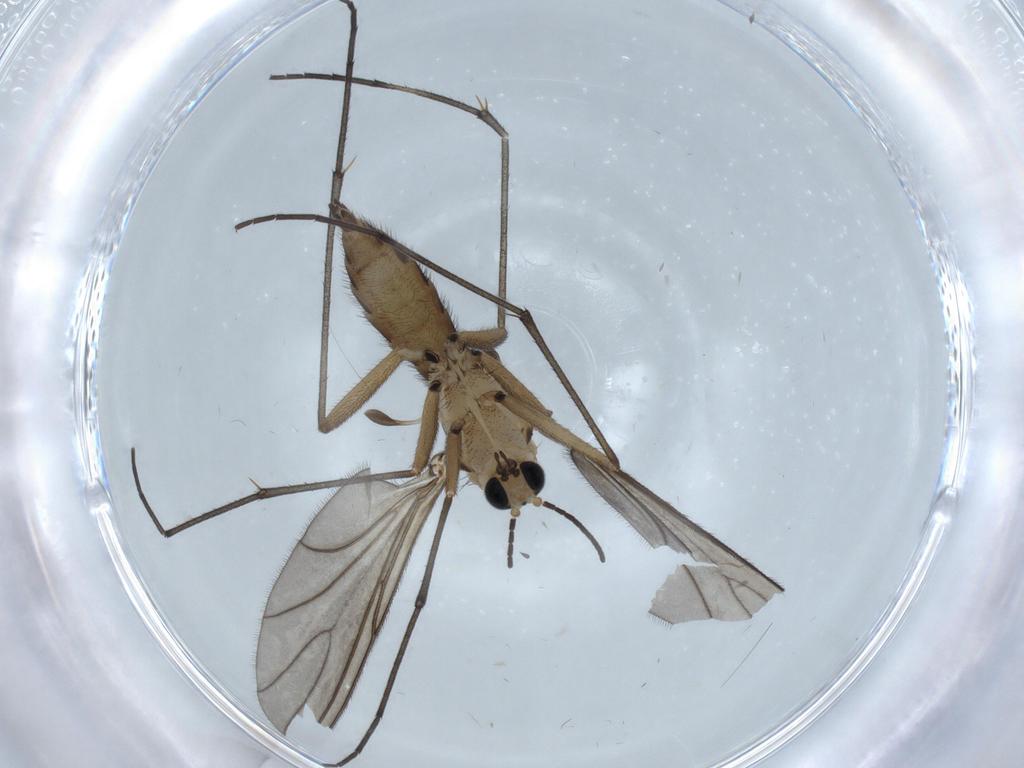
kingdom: Animalia
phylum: Arthropoda
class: Insecta
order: Diptera
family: Sciaridae
